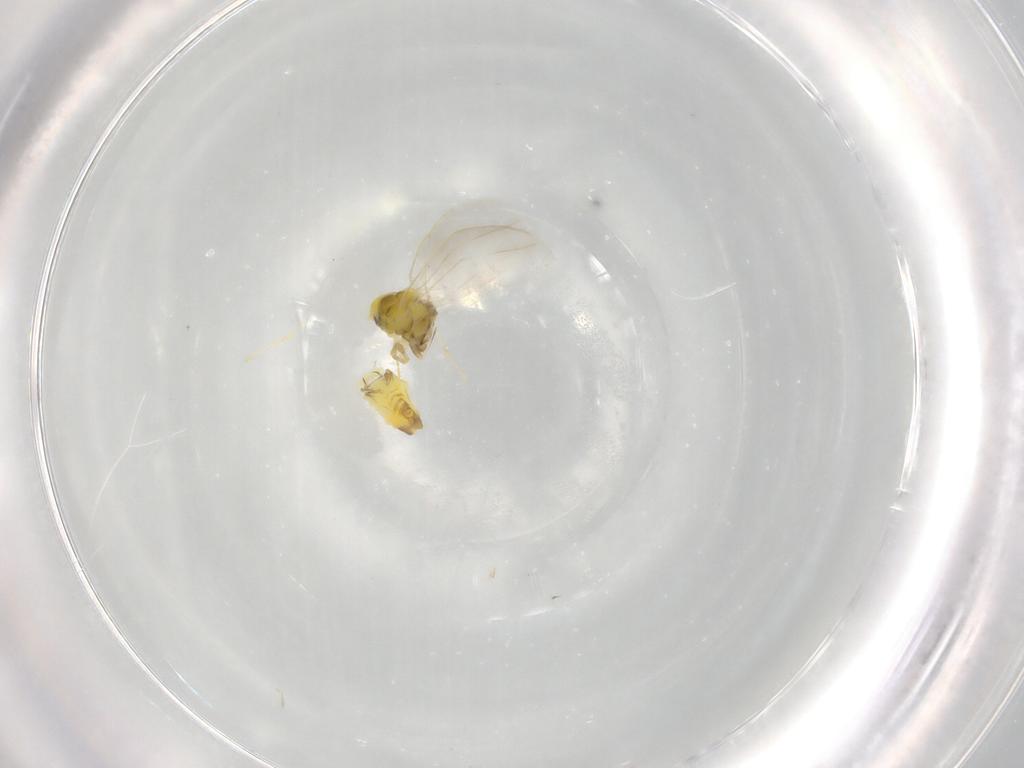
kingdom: Animalia
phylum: Arthropoda
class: Insecta
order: Hemiptera
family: Aleyrodidae
